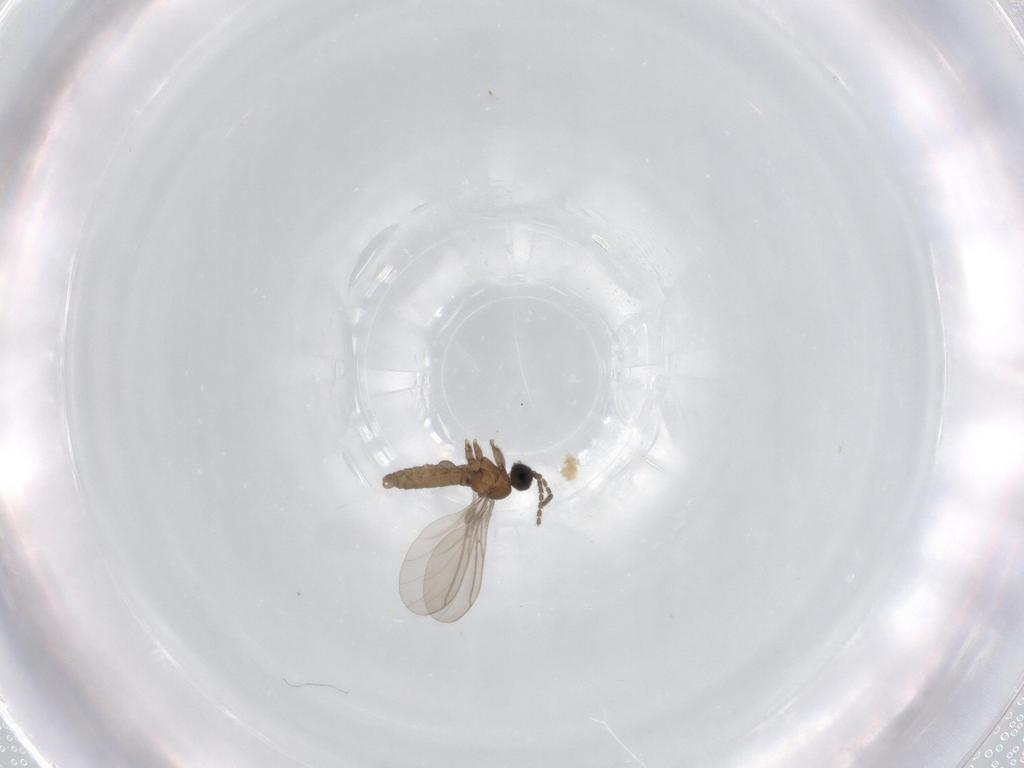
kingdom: Animalia
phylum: Arthropoda
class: Insecta
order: Diptera
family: Sciaridae
